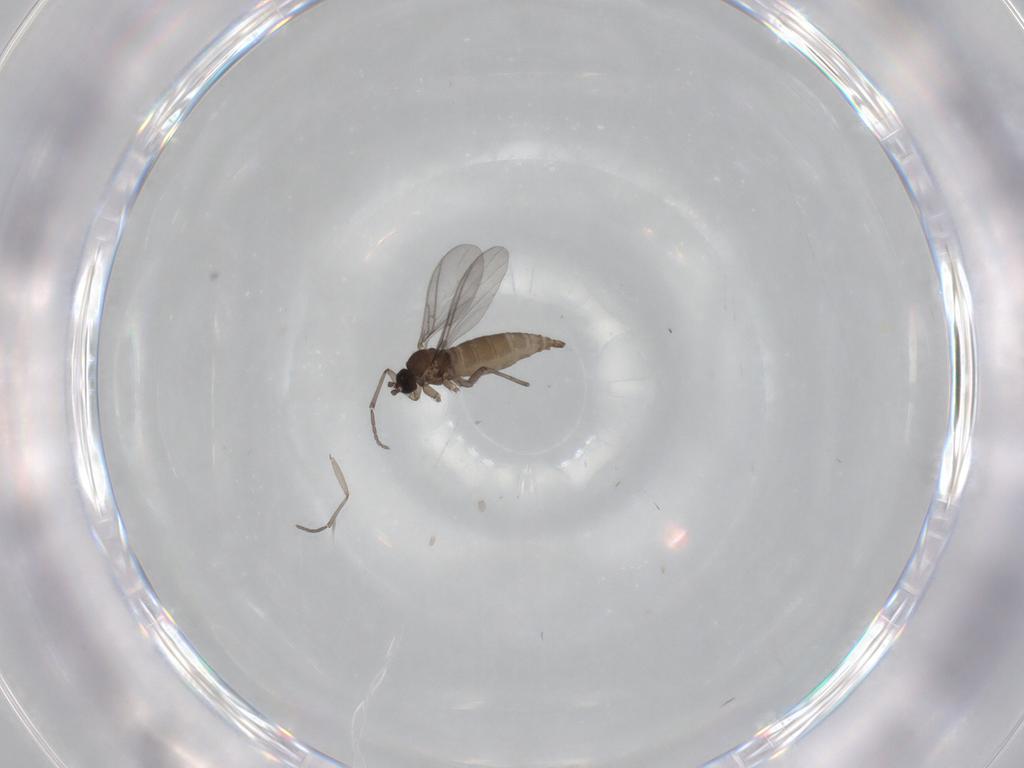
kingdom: Animalia
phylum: Arthropoda
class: Insecta
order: Diptera
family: Sciaridae
